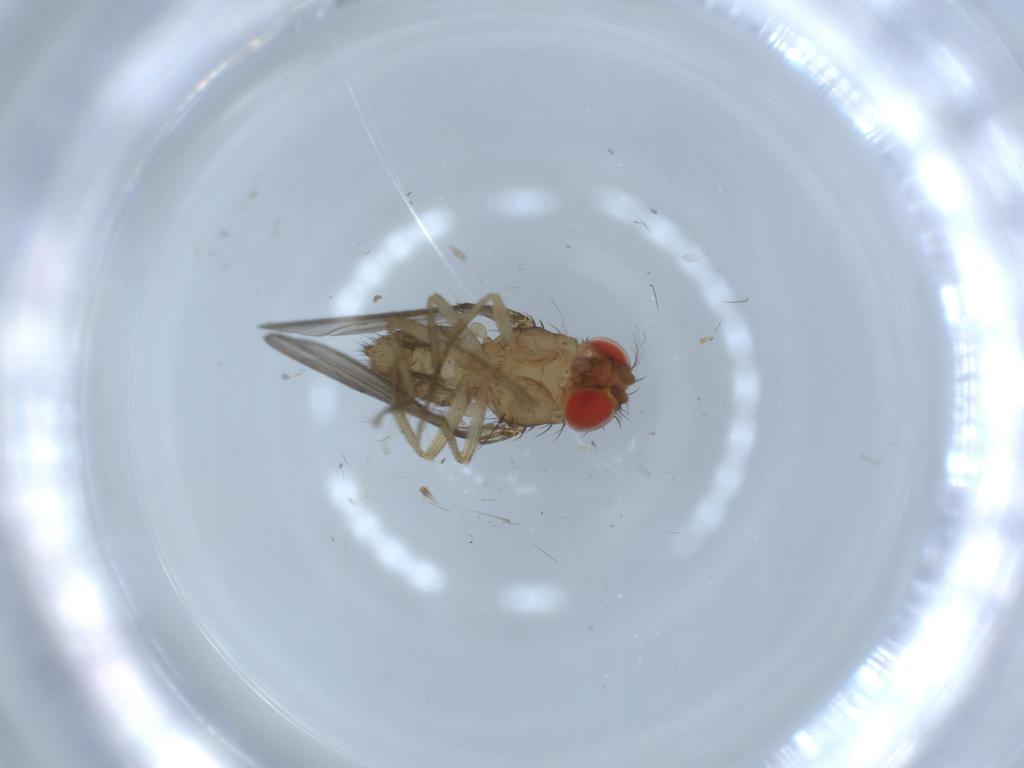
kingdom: Animalia
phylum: Arthropoda
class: Insecta
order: Diptera
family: Drosophilidae
